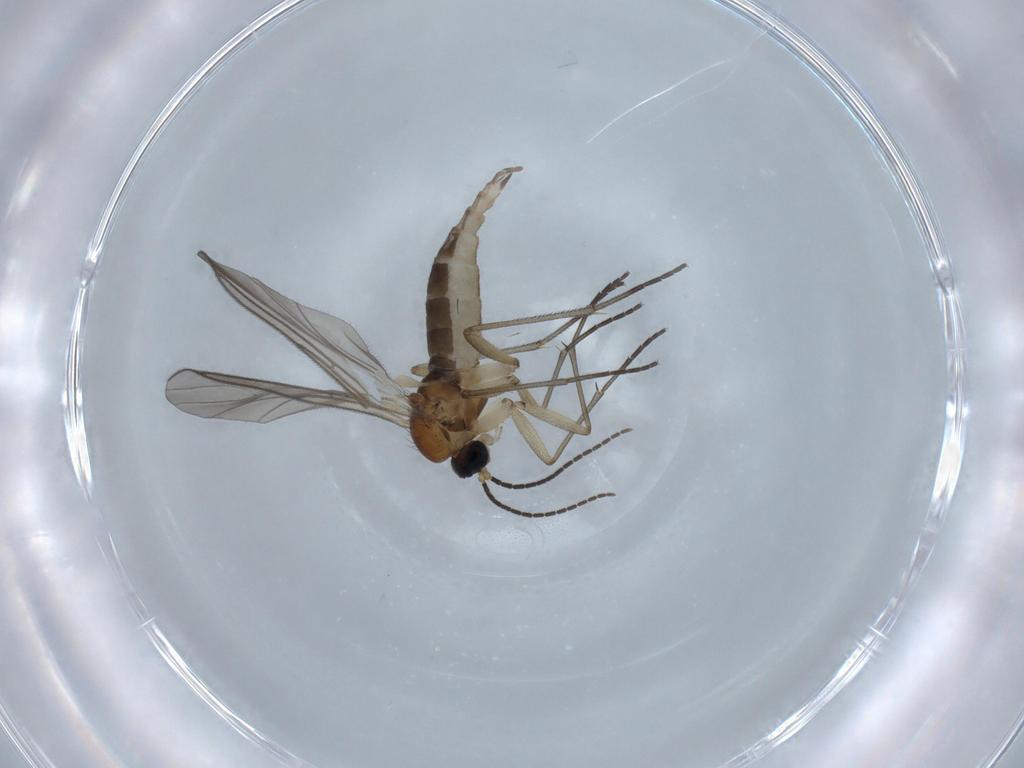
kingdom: Animalia
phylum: Arthropoda
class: Insecta
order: Diptera
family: Sciaridae
